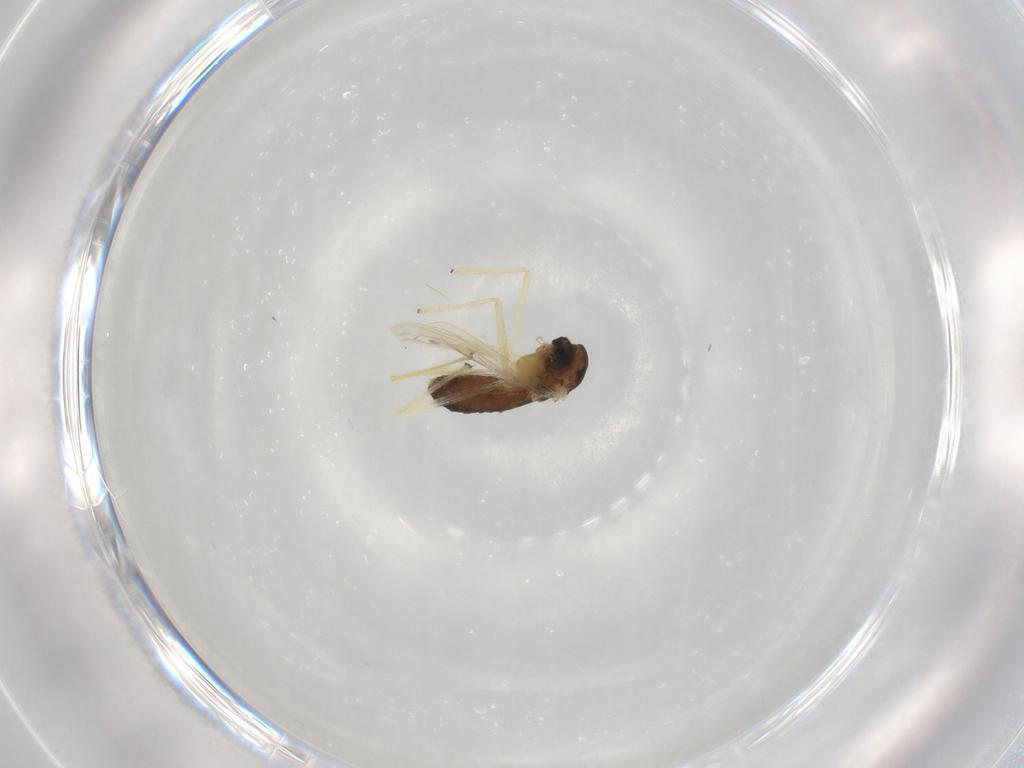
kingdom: Animalia
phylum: Arthropoda
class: Insecta
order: Diptera
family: Chironomidae
